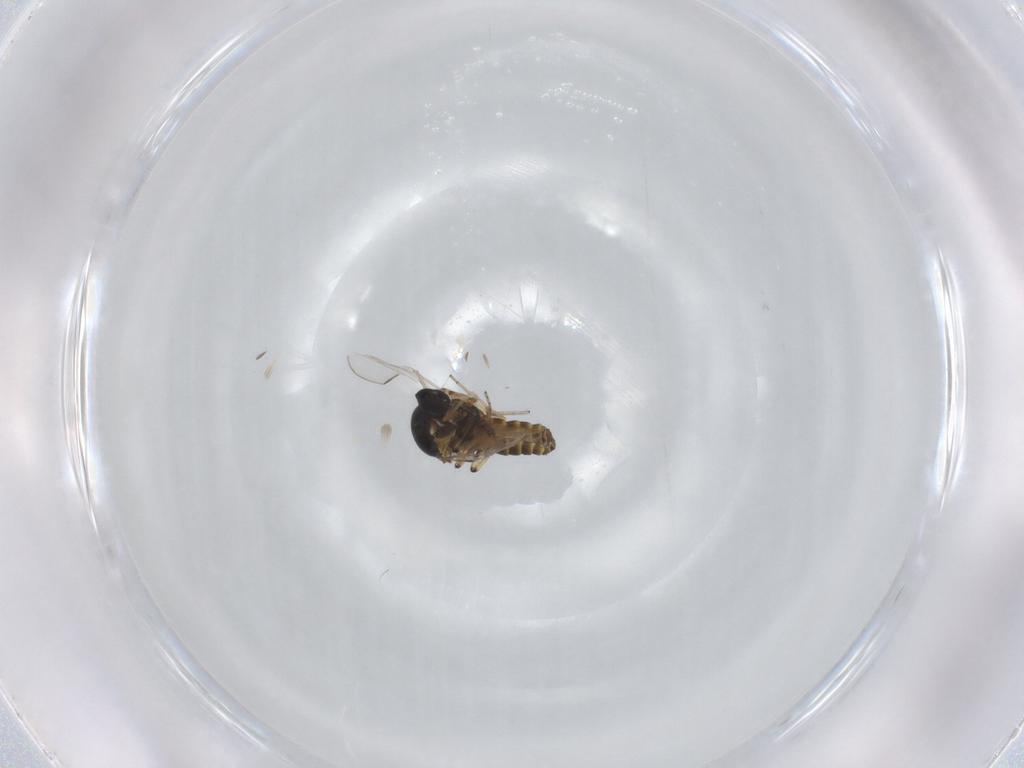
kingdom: Animalia
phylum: Arthropoda
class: Insecta
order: Diptera
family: Ceratopogonidae
